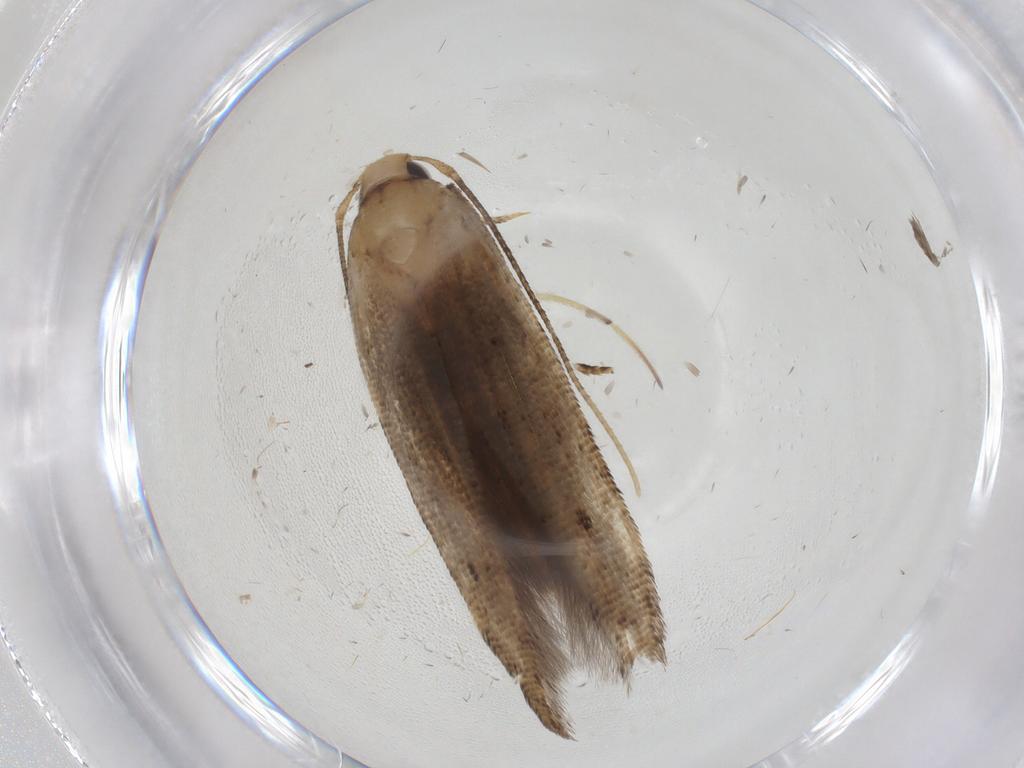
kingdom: Animalia
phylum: Arthropoda
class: Insecta
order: Lepidoptera
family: Cosmopterigidae
